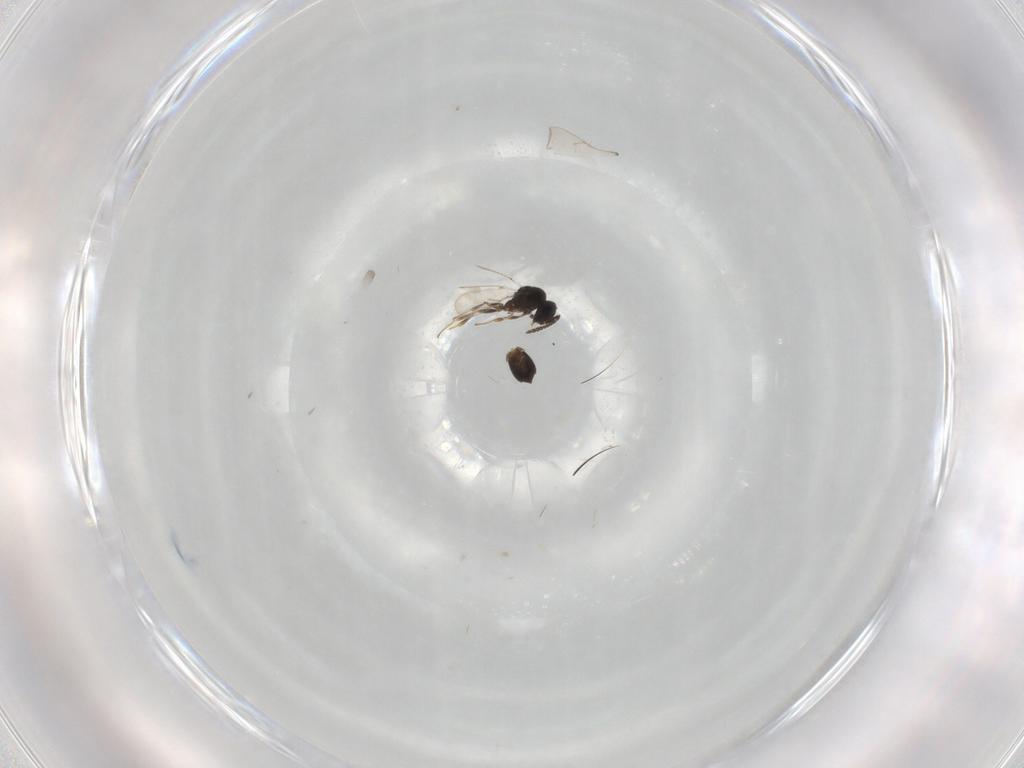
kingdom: Animalia
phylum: Arthropoda
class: Insecta
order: Hymenoptera
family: Scelionidae
